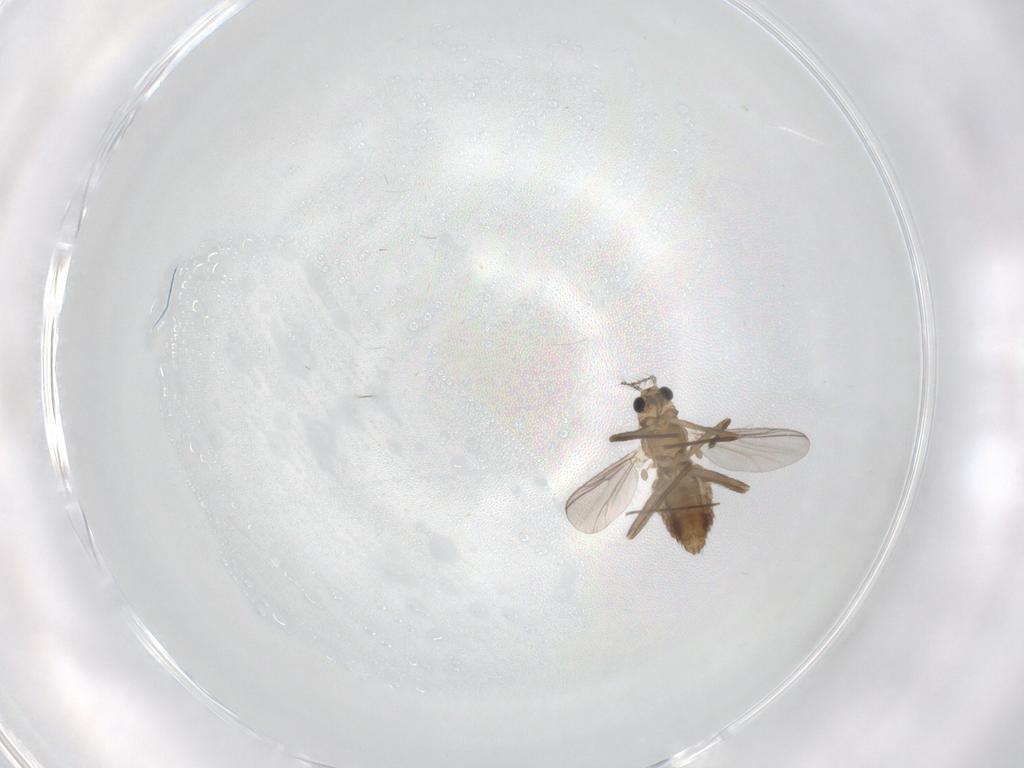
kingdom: Animalia
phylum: Arthropoda
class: Insecta
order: Diptera
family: Chironomidae
